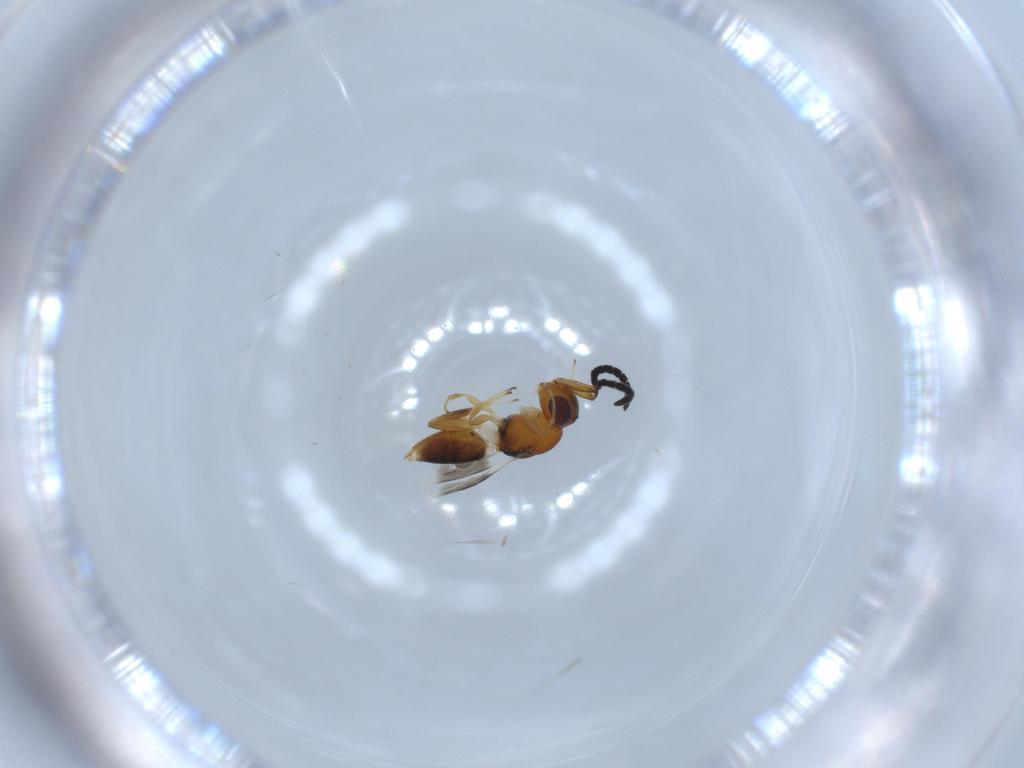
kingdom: Animalia
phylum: Arthropoda
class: Insecta
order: Hymenoptera
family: Megaspilidae
